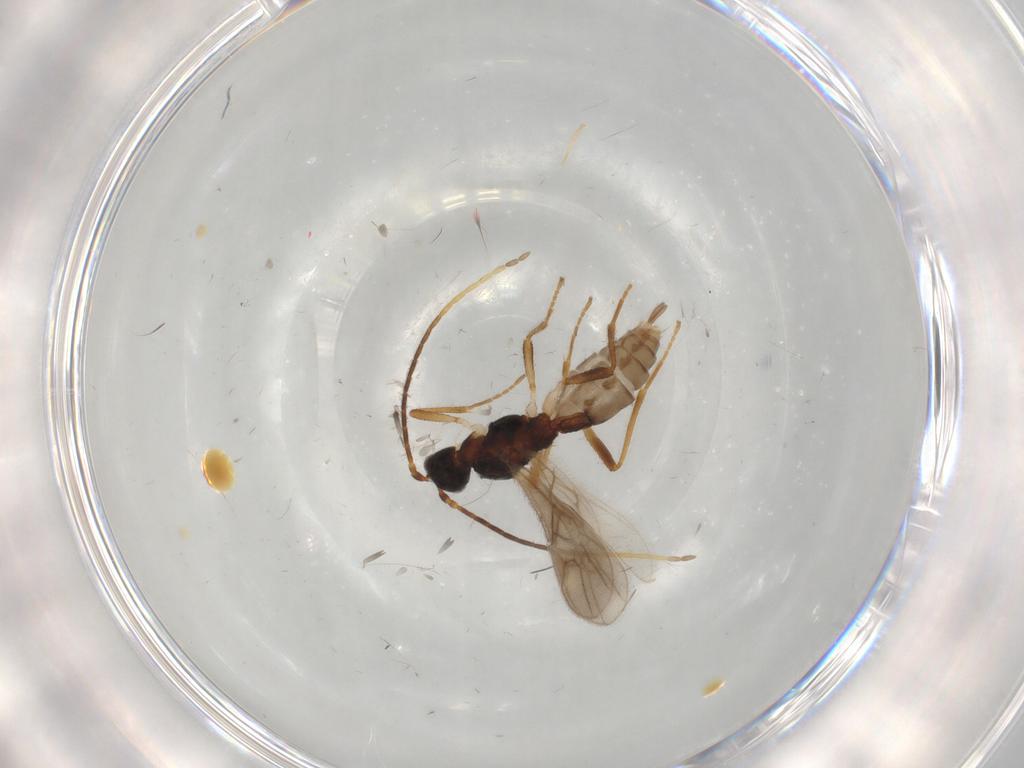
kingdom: Animalia
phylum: Arthropoda
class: Insecta
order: Hymenoptera
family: Braconidae
